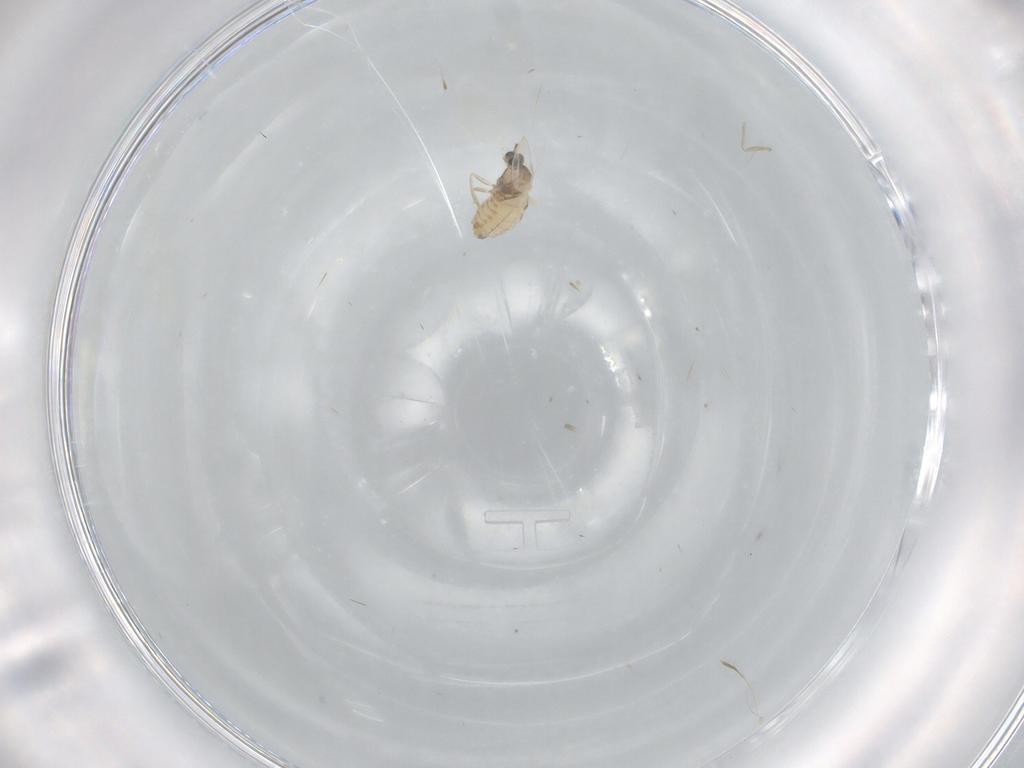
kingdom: Animalia
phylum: Arthropoda
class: Insecta
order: Diptera
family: Cecidomyiidae
